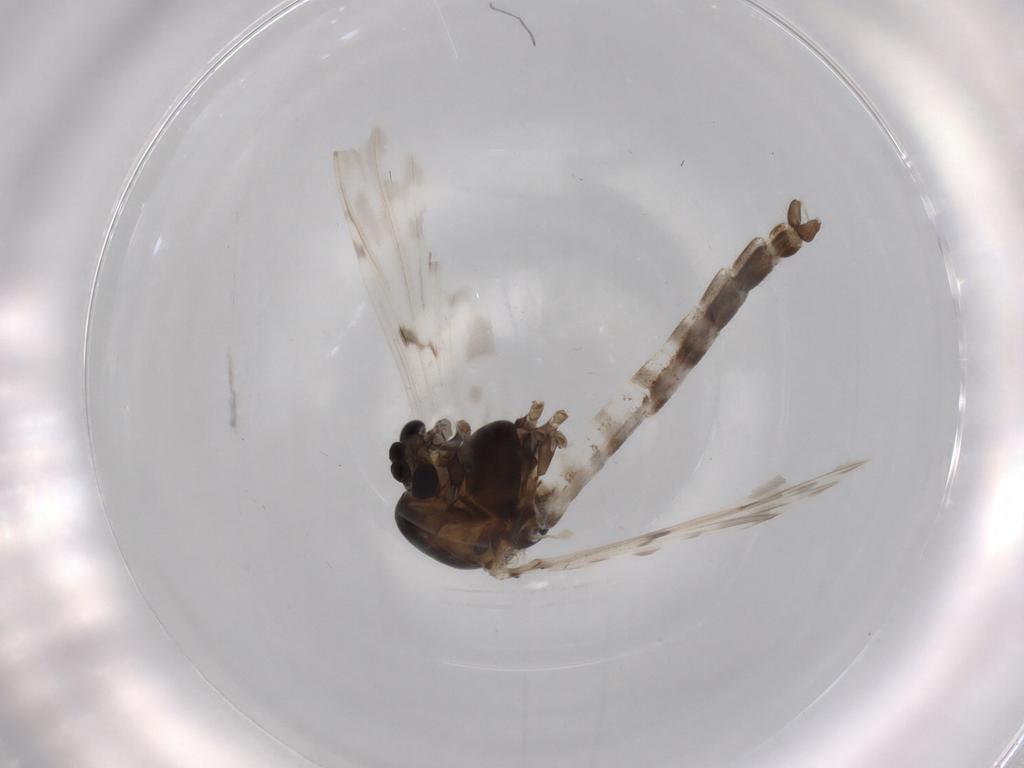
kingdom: Animalia
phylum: Arthropoda
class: Insecta
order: Diptera
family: Chironomidae
